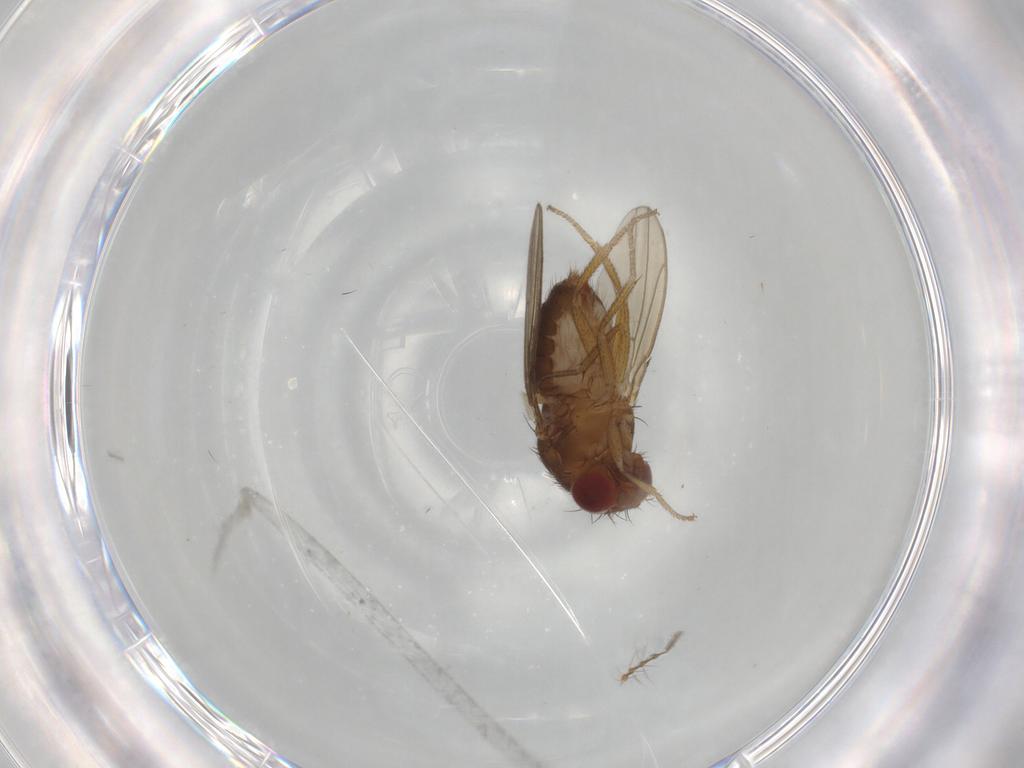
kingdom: Animalia
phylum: Arthropoda
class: Insecta
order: Diptera
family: Drosophilidae
